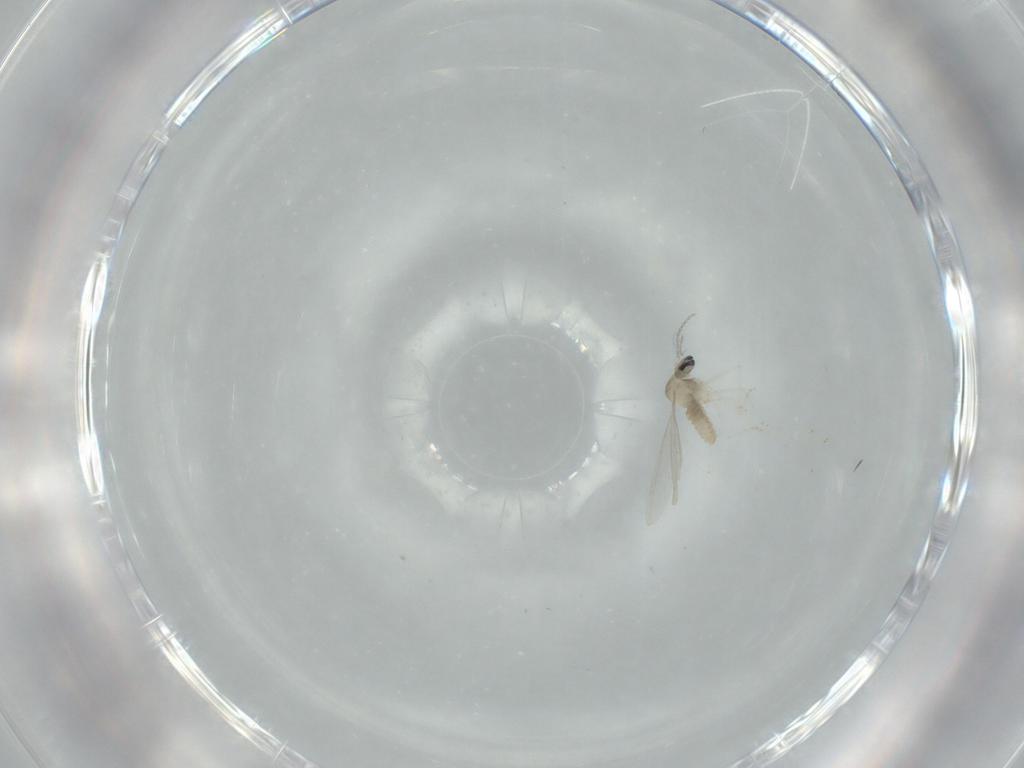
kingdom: Animalia
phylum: Arthropoda
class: Insecta
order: Diptera
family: Cecidomyiidae
